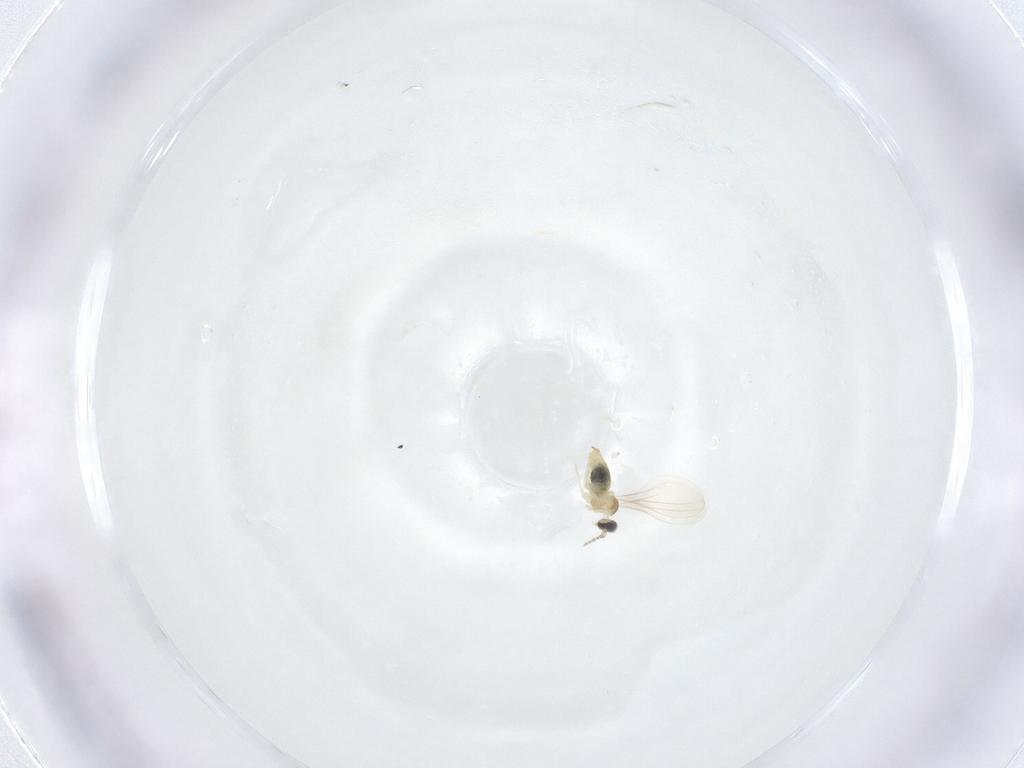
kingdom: Animalia
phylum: Arthropoda
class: Insecta
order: Diptera
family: Cecidomyiidae
